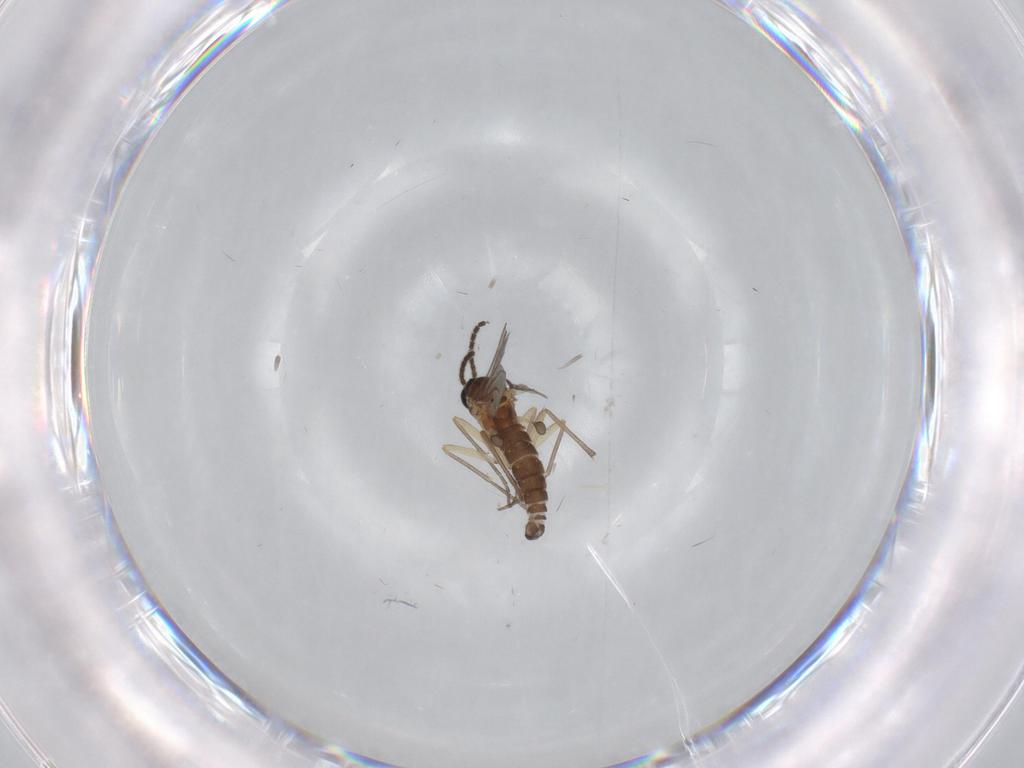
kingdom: Animalia
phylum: Arthropoda
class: Insecta
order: Diptera
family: Sciaridae
